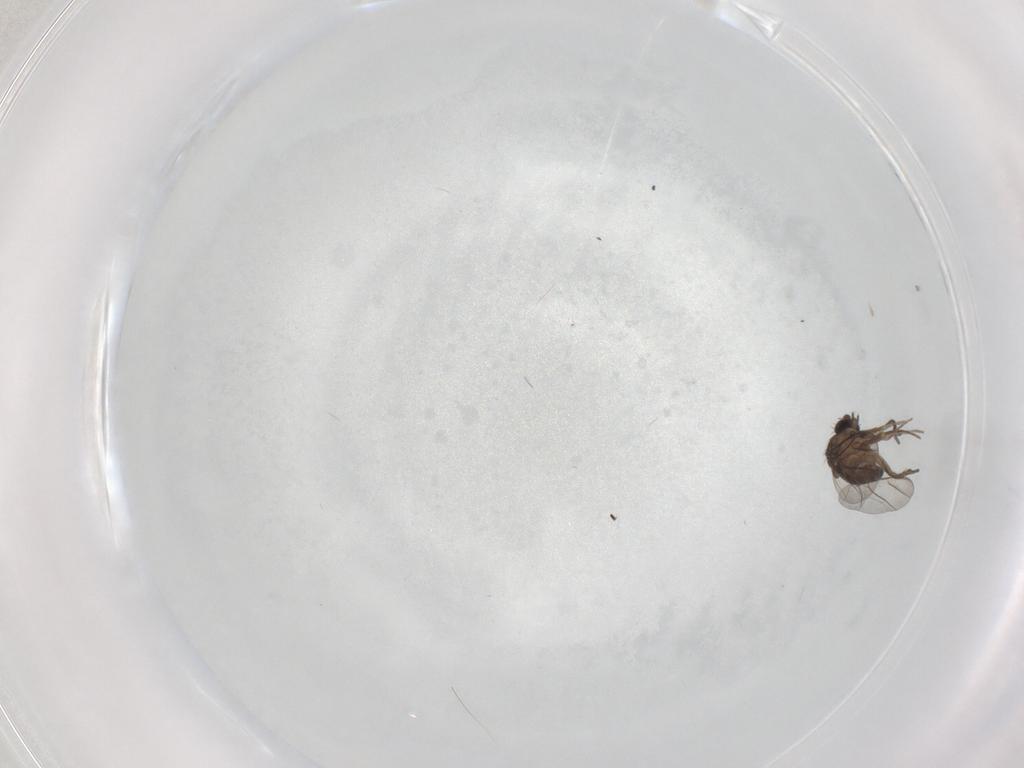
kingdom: Animalia
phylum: Arthropoda
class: Insecta
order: Diptera
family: Phoridae
